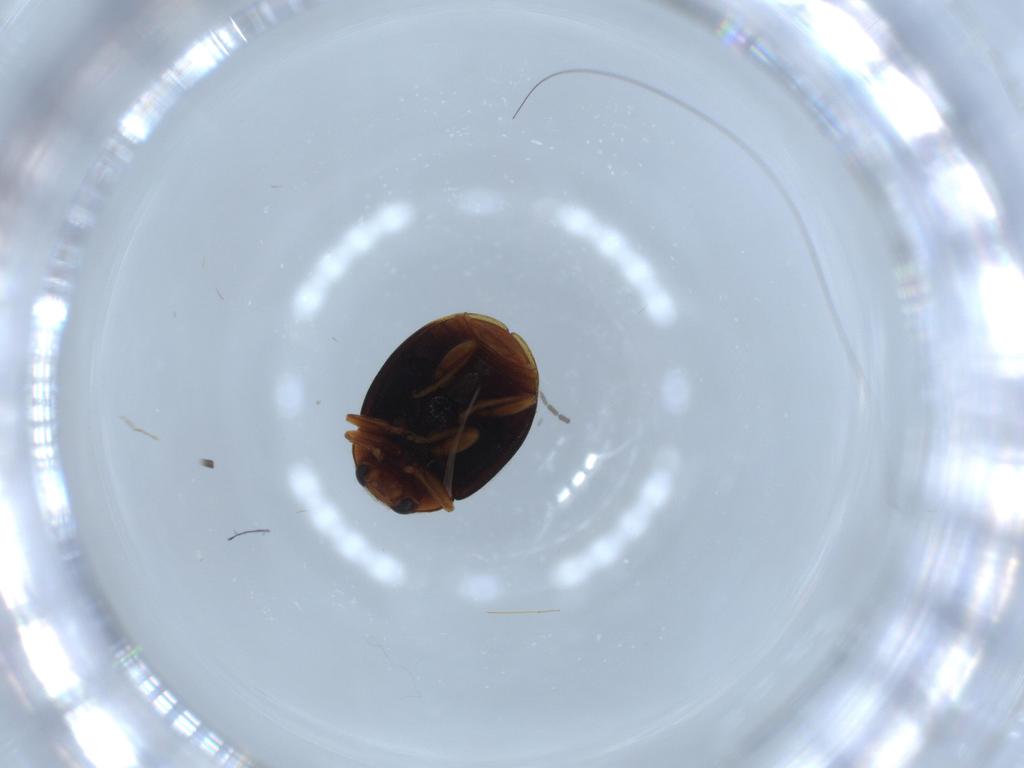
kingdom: Animalia
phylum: Arthropoda
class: Insecta
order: Coleoptera
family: Coccinellidae
